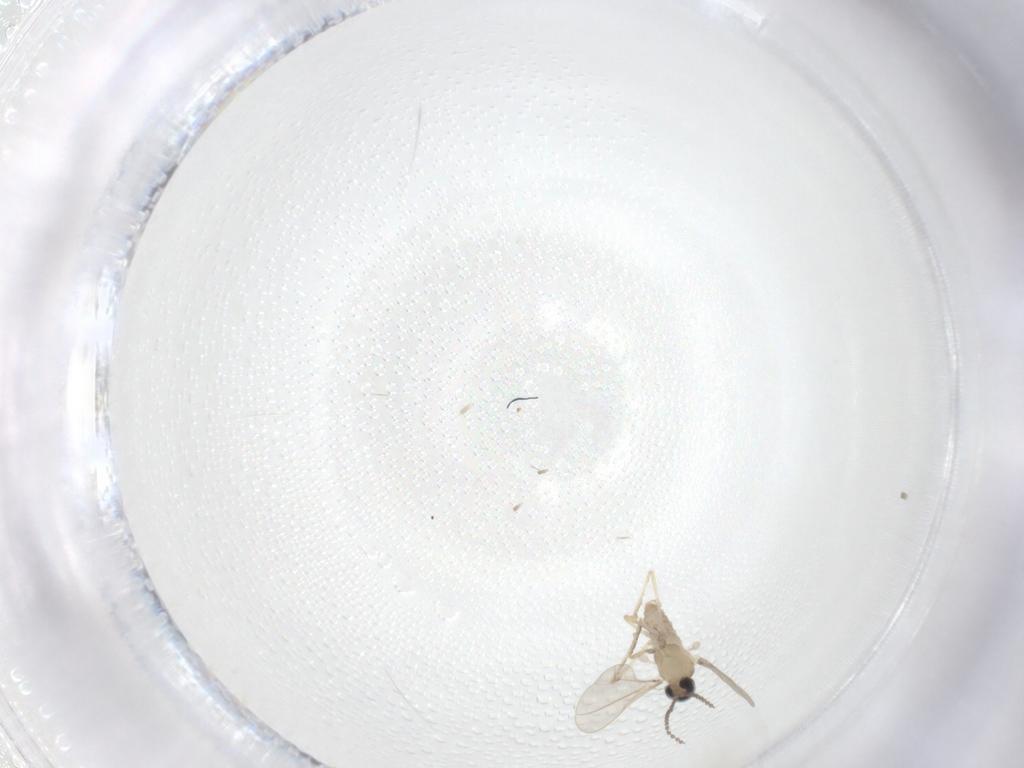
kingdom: Animalia
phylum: Arthropoda
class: Insecta
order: Diptera
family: Cecidomyiidae
